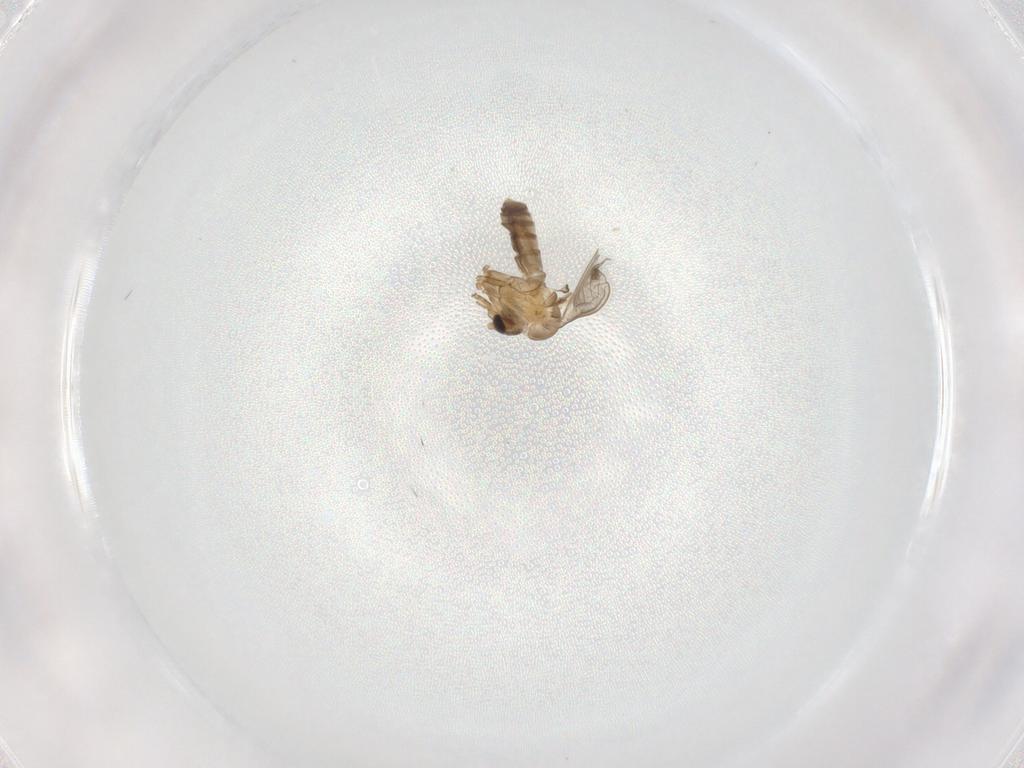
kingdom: Animalia
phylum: Arthropoda
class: Insecta
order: Diptera
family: Psychodidae
